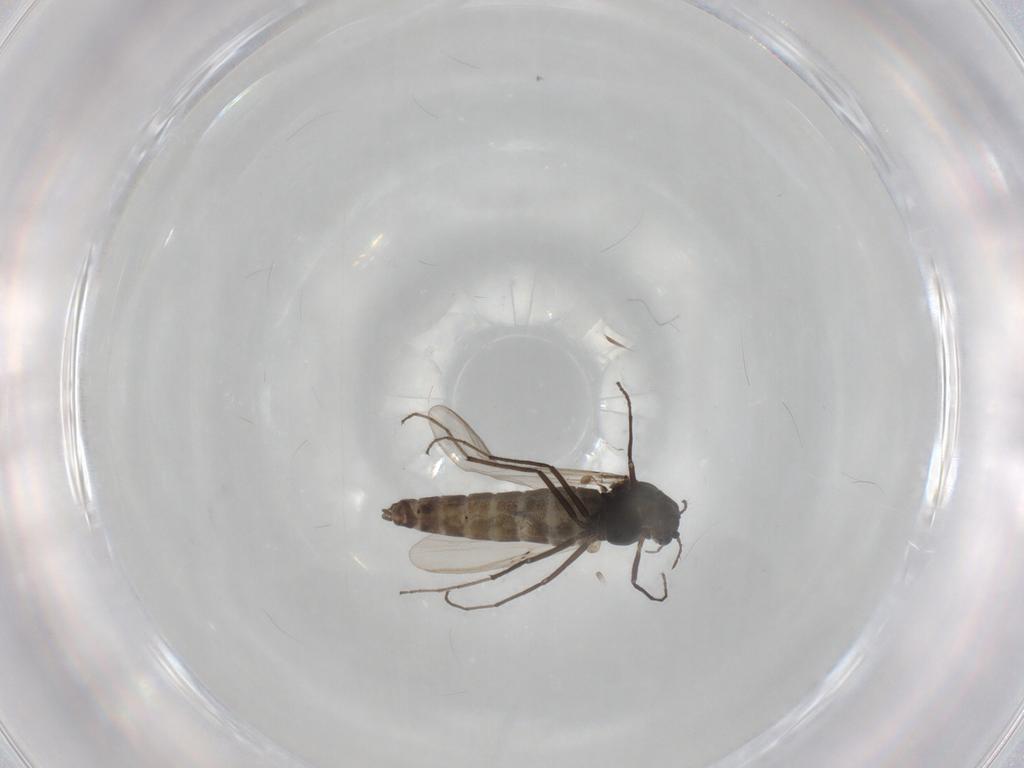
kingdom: Animalia
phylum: Arthropoda
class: Insecta
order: Diptera
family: Chironomidae
